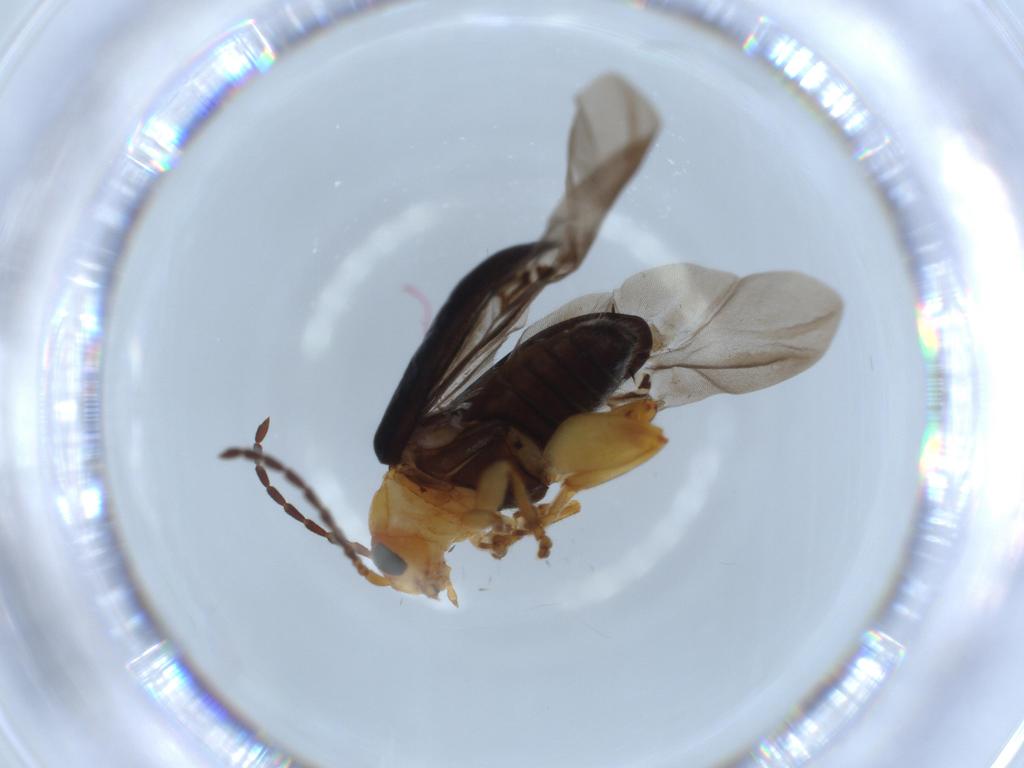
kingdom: Animalia
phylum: Arthropoda
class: Insecta
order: Coleoptera
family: Chrysomelidae
